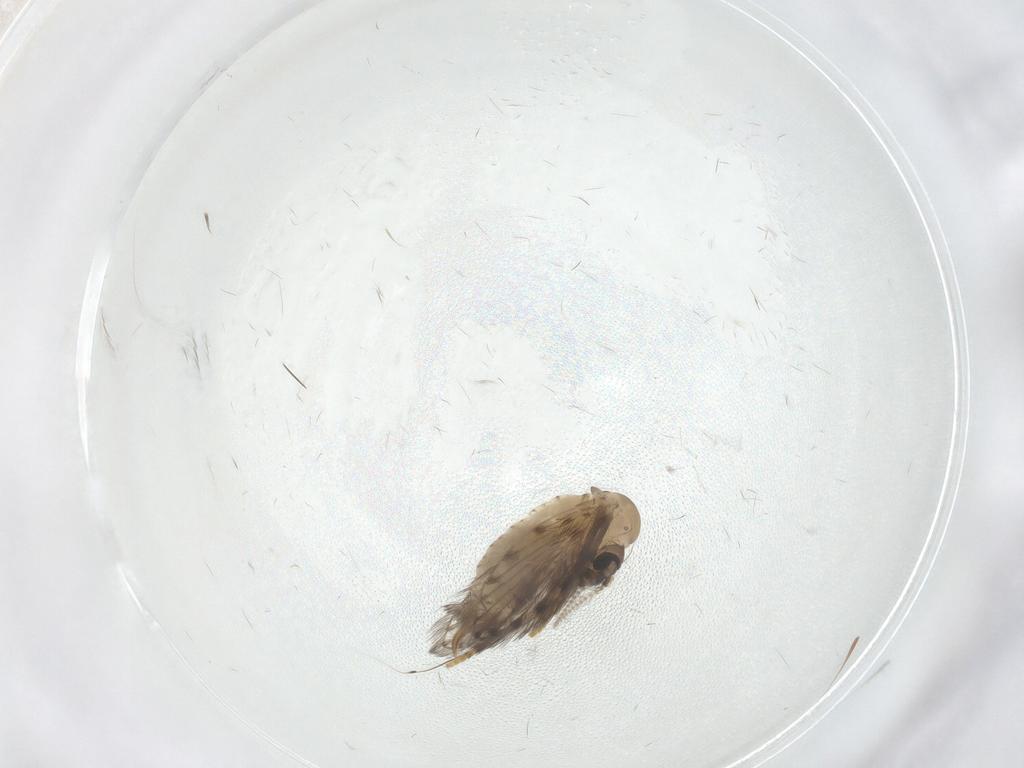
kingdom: Animalia
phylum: Arthropoda
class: Insecta
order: Diptera
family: Psychodidae
